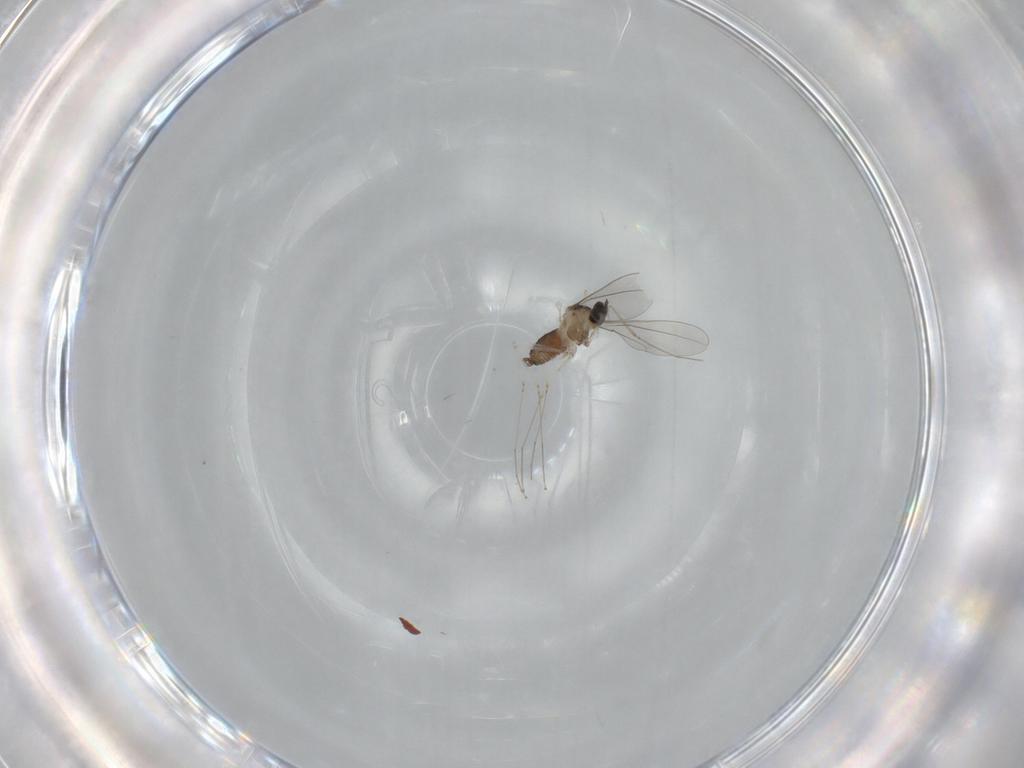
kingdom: Animalia
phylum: Arthropoda
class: Insecta
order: Diptera
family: Cecidomyiidae
